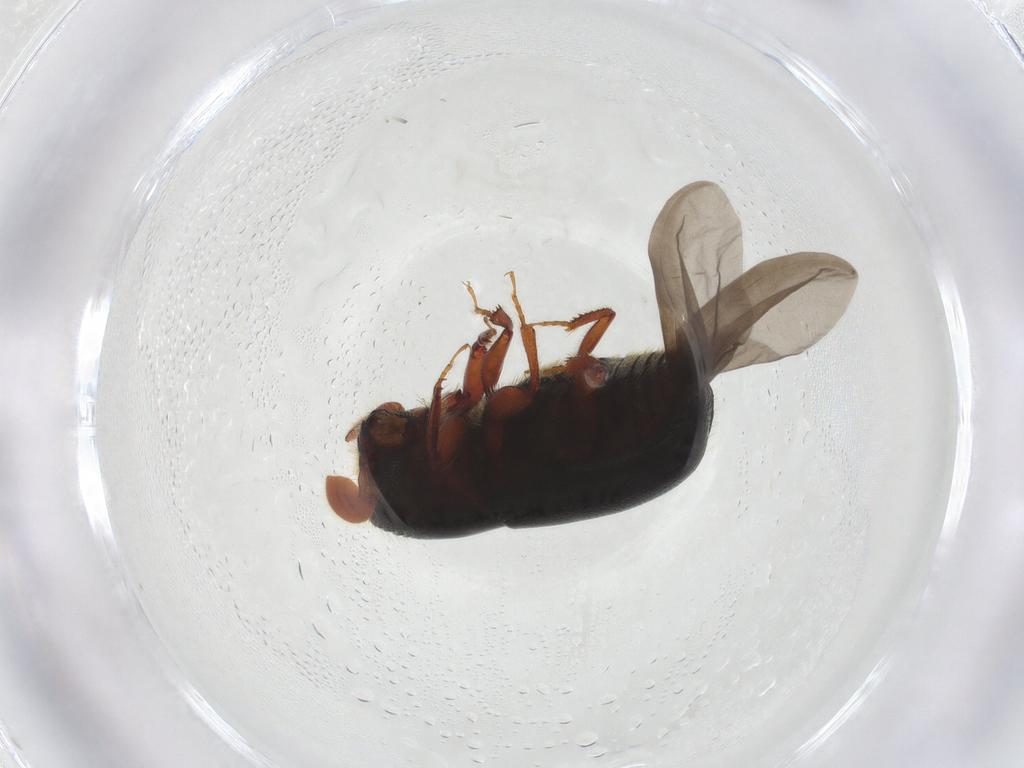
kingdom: Animalia
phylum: Arthropoda
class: Insecta
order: Coleoptera
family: Curculionidae
